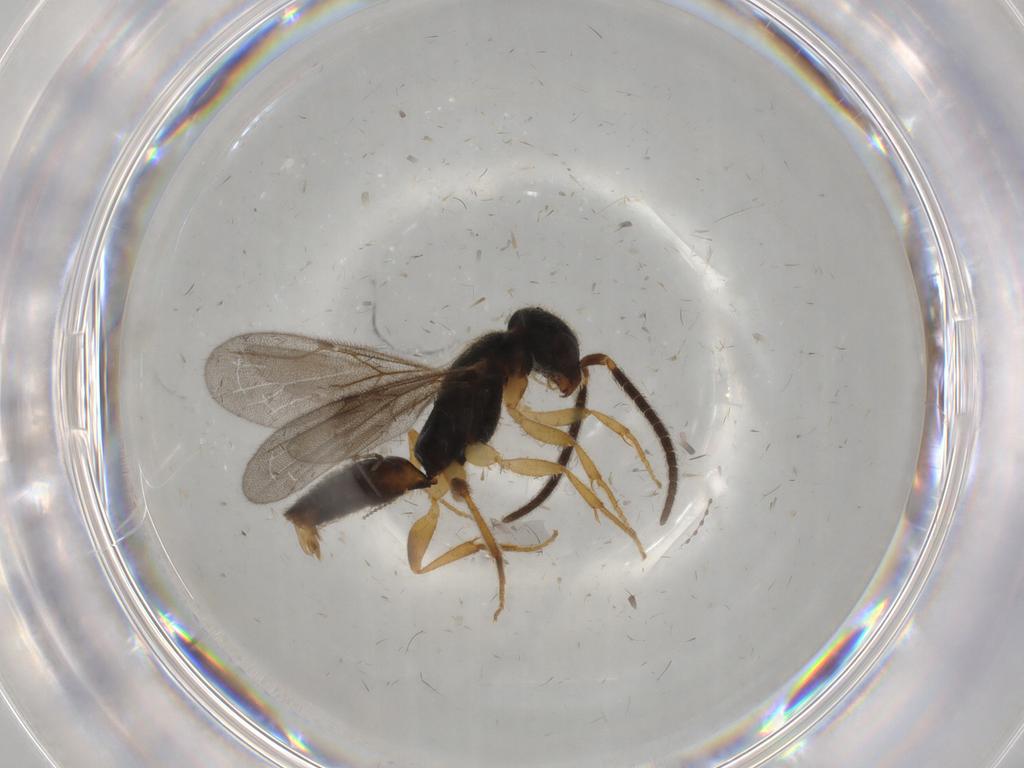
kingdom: Animalia
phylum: Arthropoda
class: Insecta
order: Hymenoptera
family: Bethylidae
